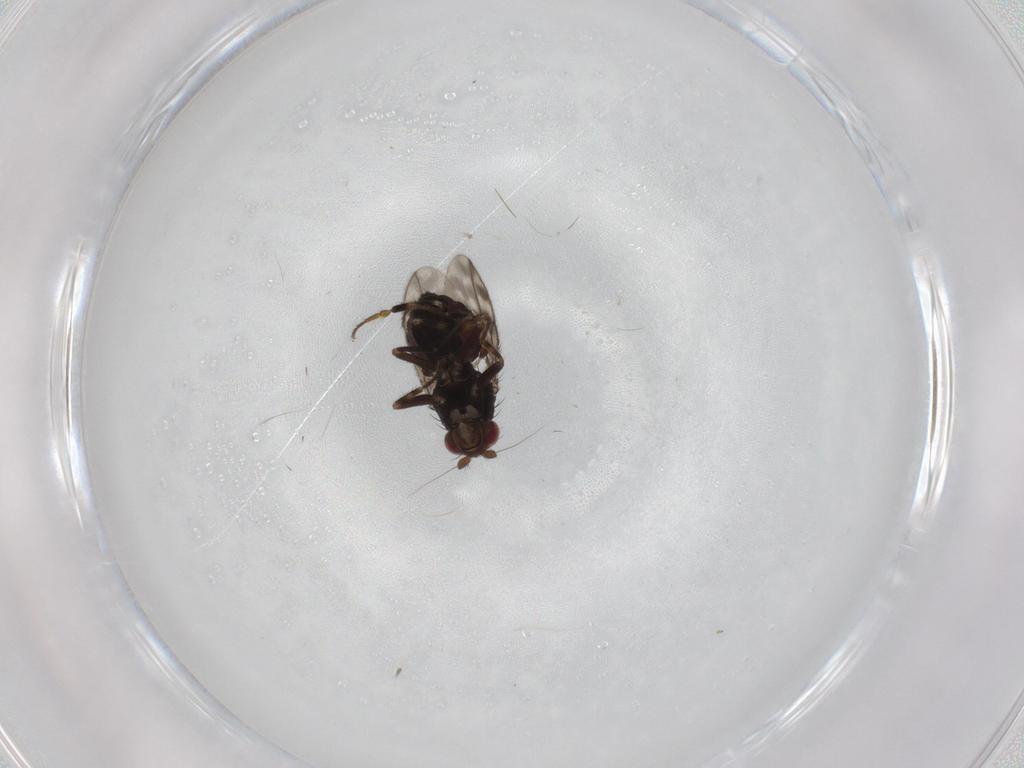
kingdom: Animalia
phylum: Arthropoda
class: Insecta
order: Diptera
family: Sphaeroceridae
